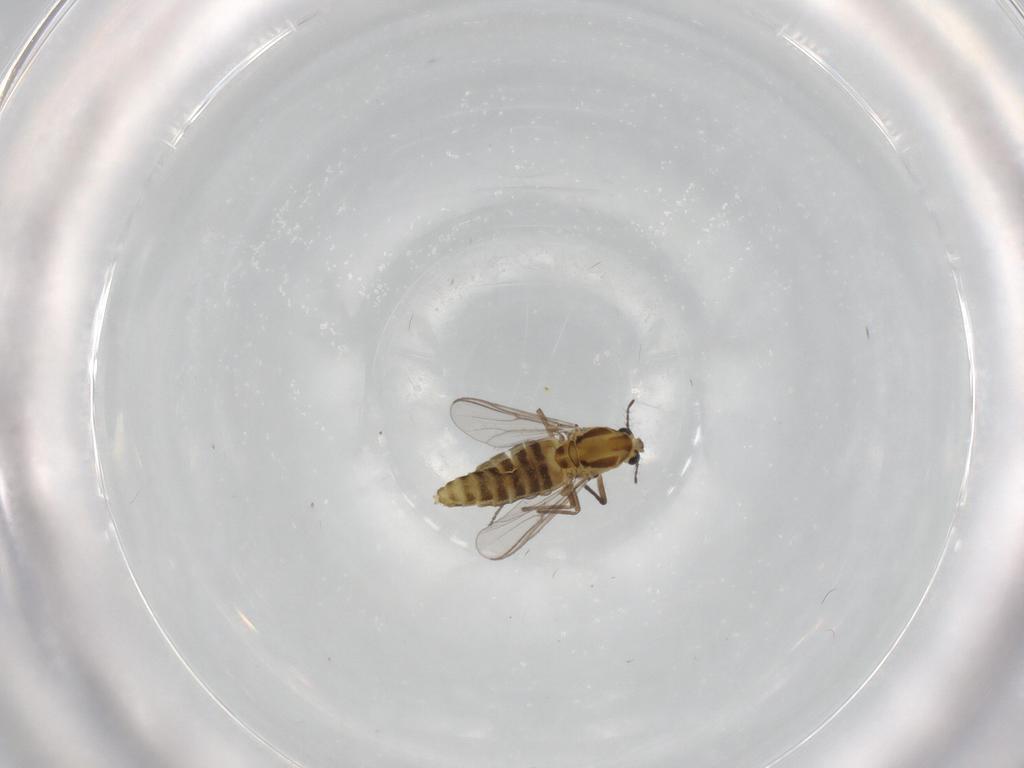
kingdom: Animalia
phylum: Arthropoda
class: Insecta
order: Diptera
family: Chironomidae
